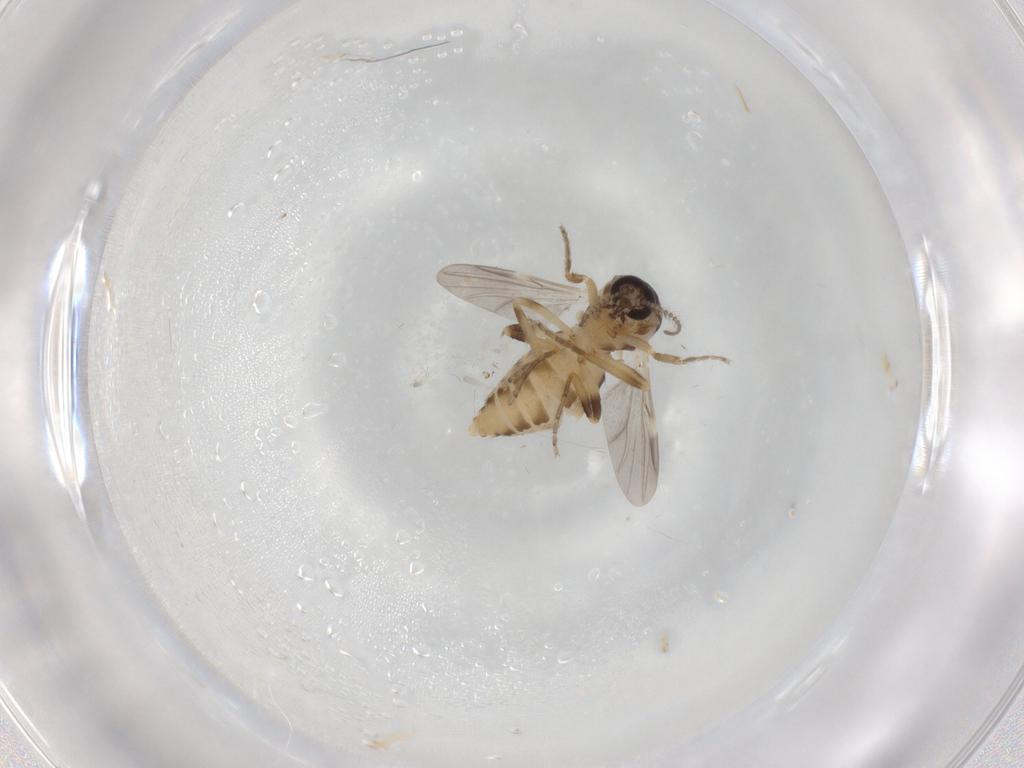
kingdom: Animalia
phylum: Arthropoda
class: Insecta
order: Diptera
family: Ceratopogonidae
